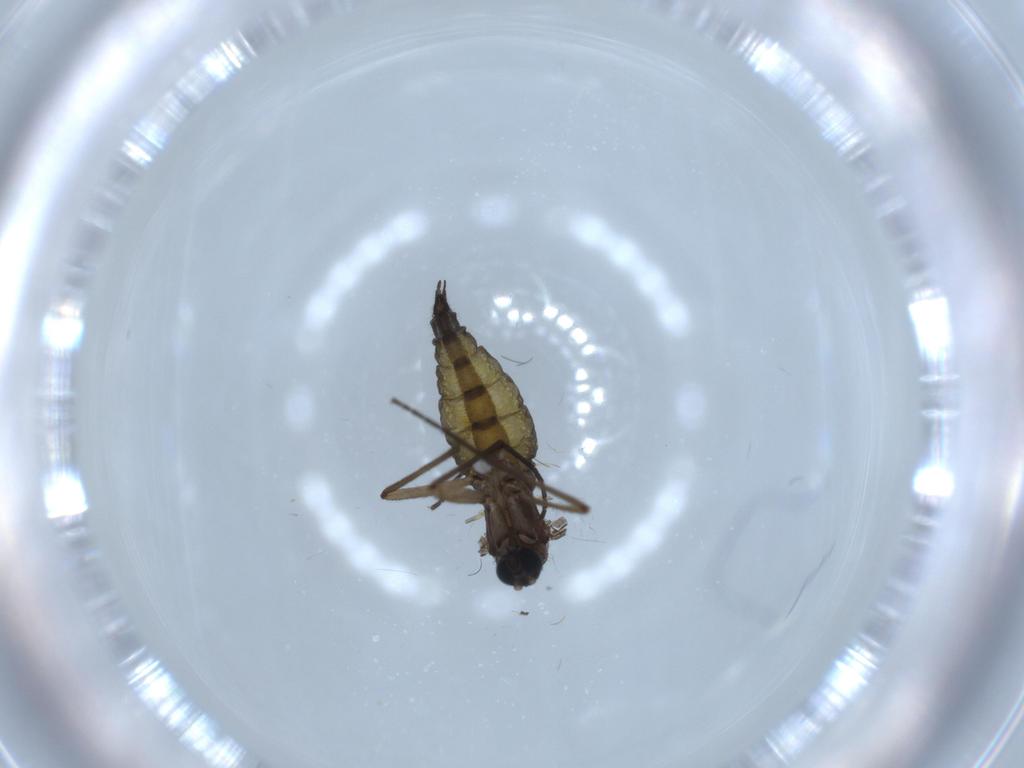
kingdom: Animalia
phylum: Arthropoda
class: Insecta
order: Diptera
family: Sciaridae
